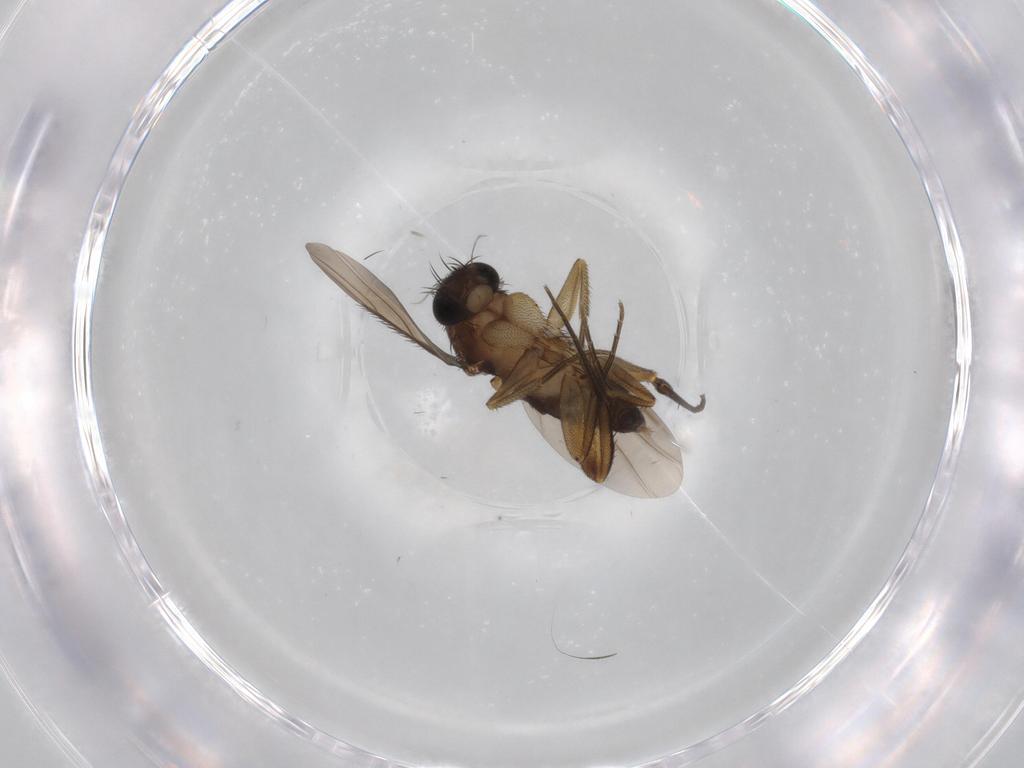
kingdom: Animalia
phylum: Arthropoda
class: Insecta
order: Diptera
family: Phoridae
